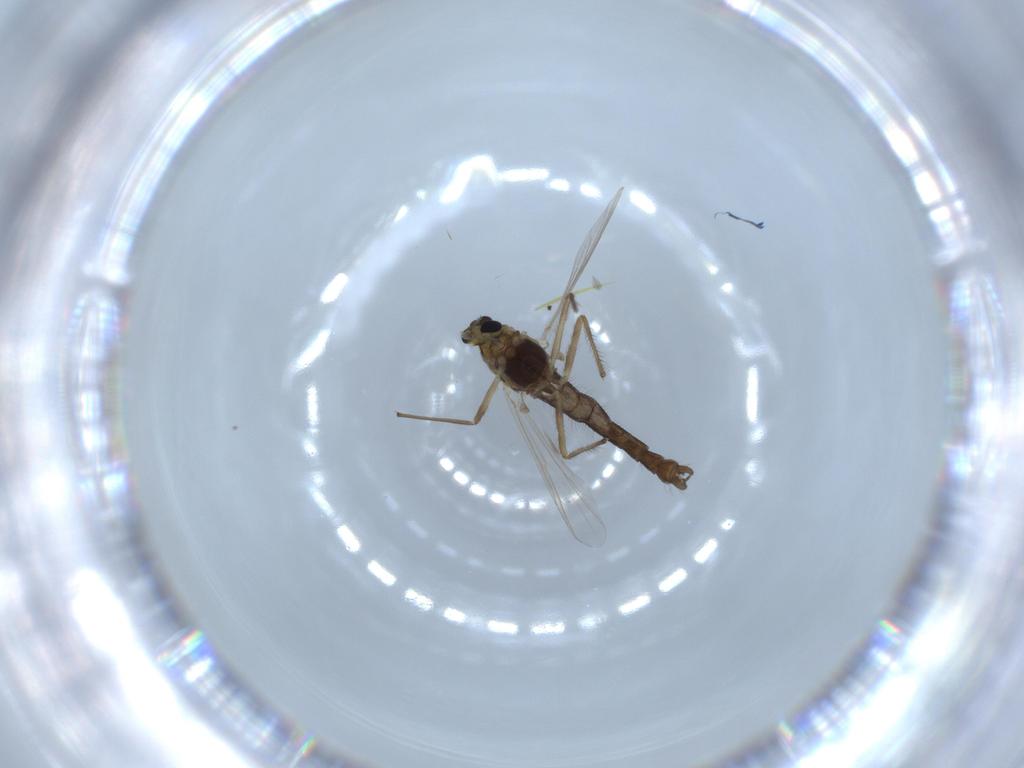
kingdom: Animalia
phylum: Arthropoda
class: Insecta
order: Diptera
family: Chironomidae
